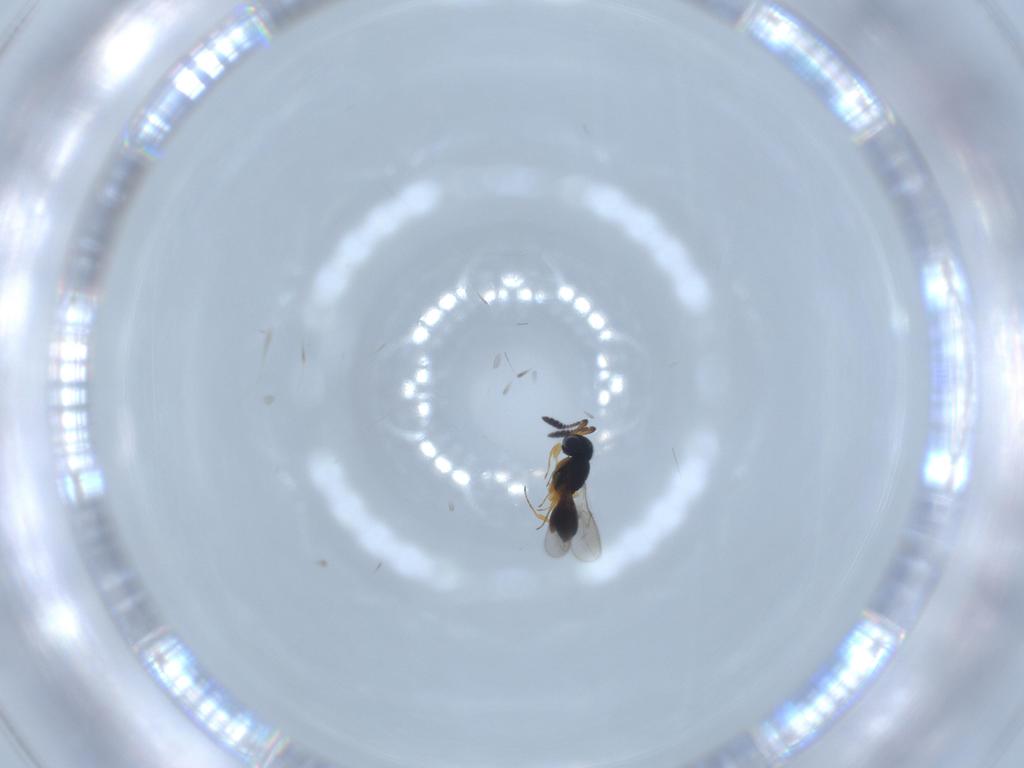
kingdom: Animalia
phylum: Arthropoda
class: Insecta
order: Hymenoptera
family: Scelionidae
